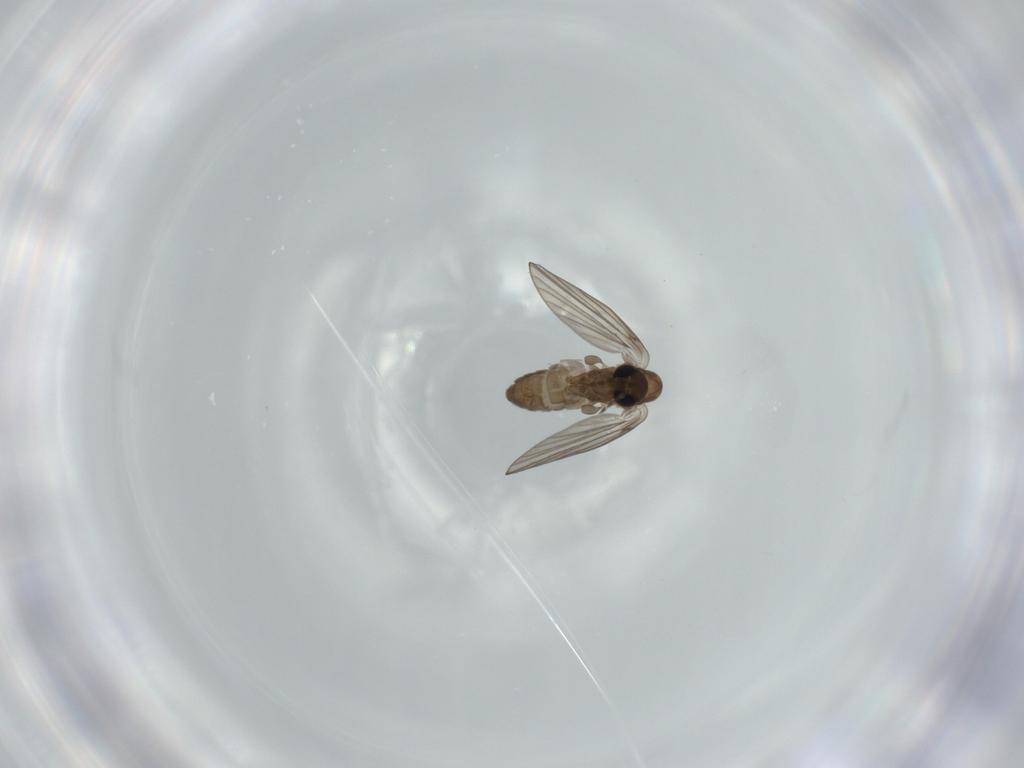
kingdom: Animalia
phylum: Arthropoda
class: Insecta
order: Diptera
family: Psychodidae
